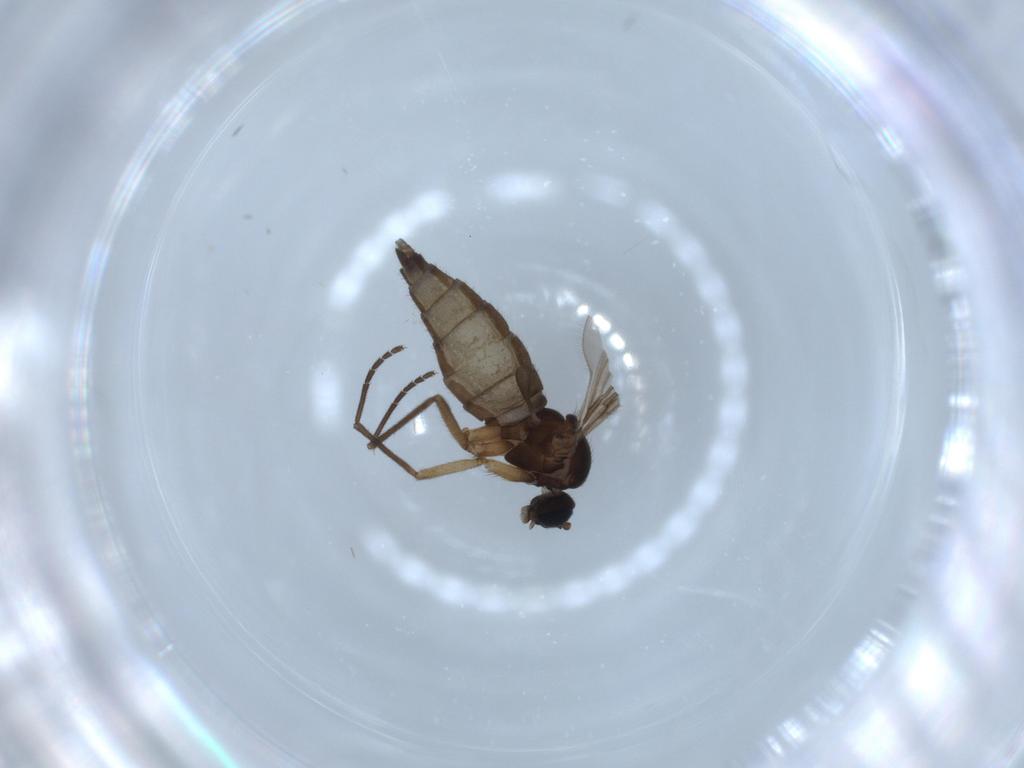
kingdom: Animalia
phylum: Arthropoda
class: Insecta
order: Diptera
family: Sciaridae
